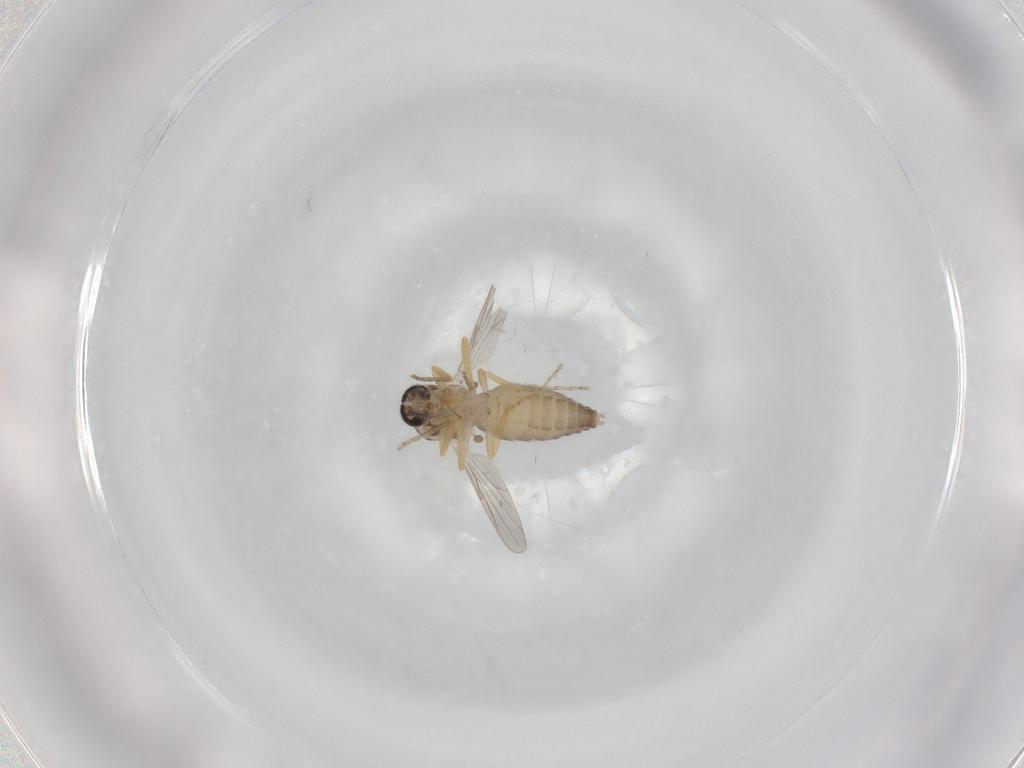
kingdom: Animalia
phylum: Arthropoda
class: Insecta
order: Diptera
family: Ceratopogonidae
